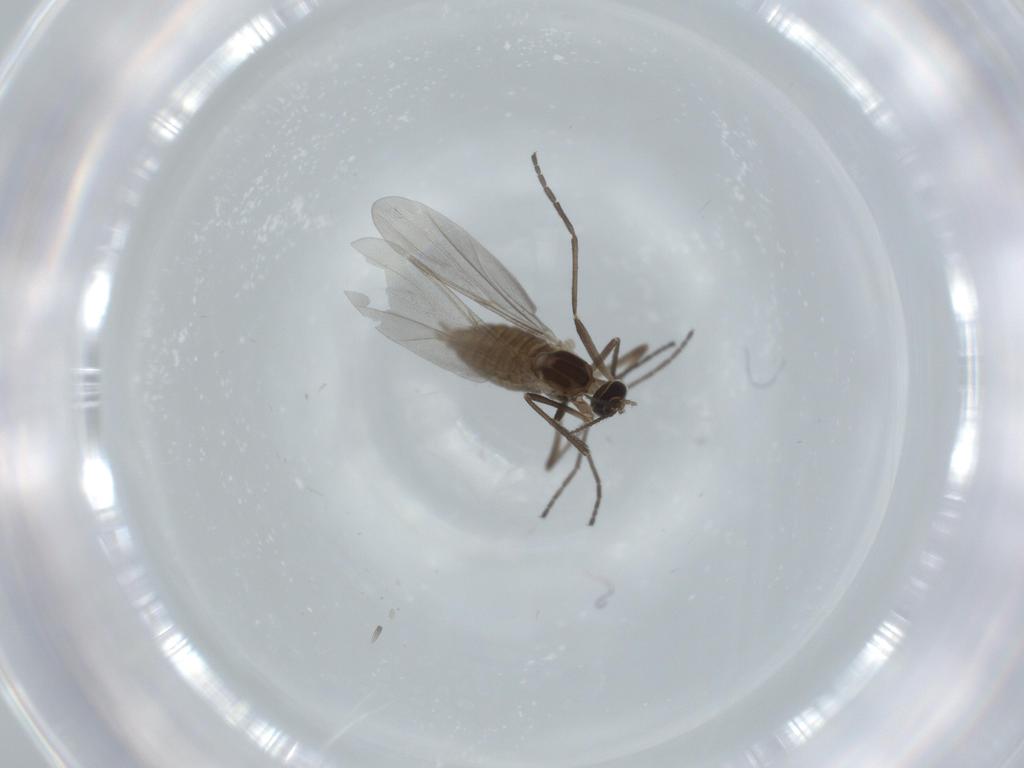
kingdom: Animalia
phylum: Arthropoda
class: Insecta
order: Diptera
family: Cecidomyiidae
